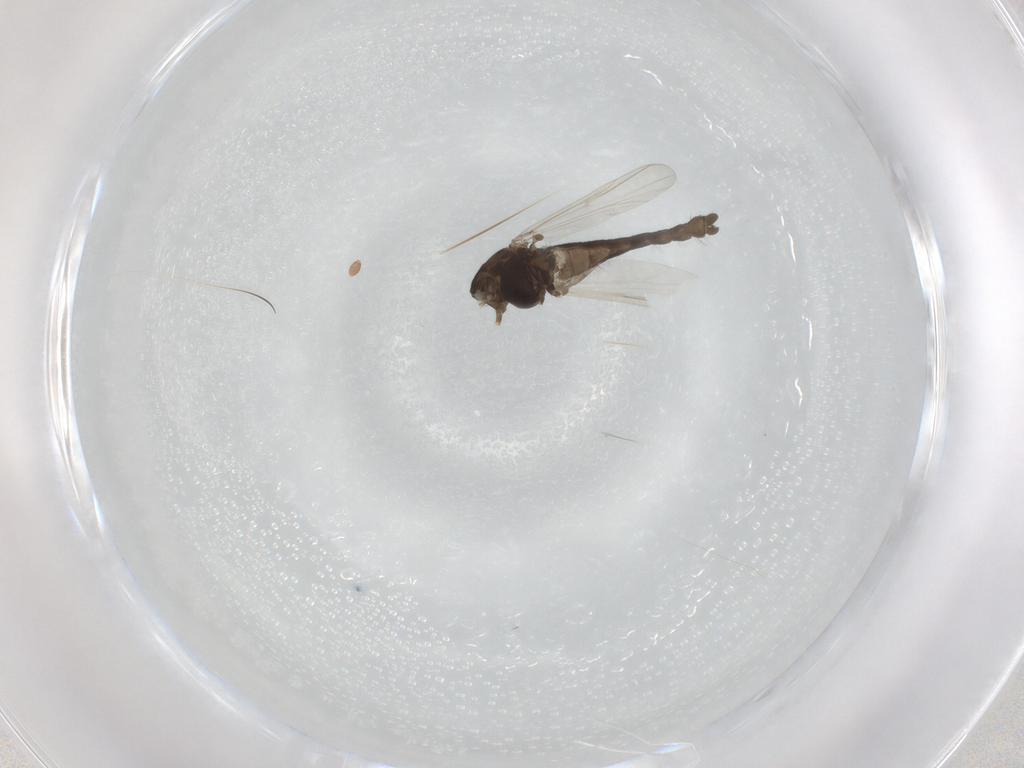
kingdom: Animalia
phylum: Arthropoda
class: Insecta
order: Diptera
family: Chironomidae
